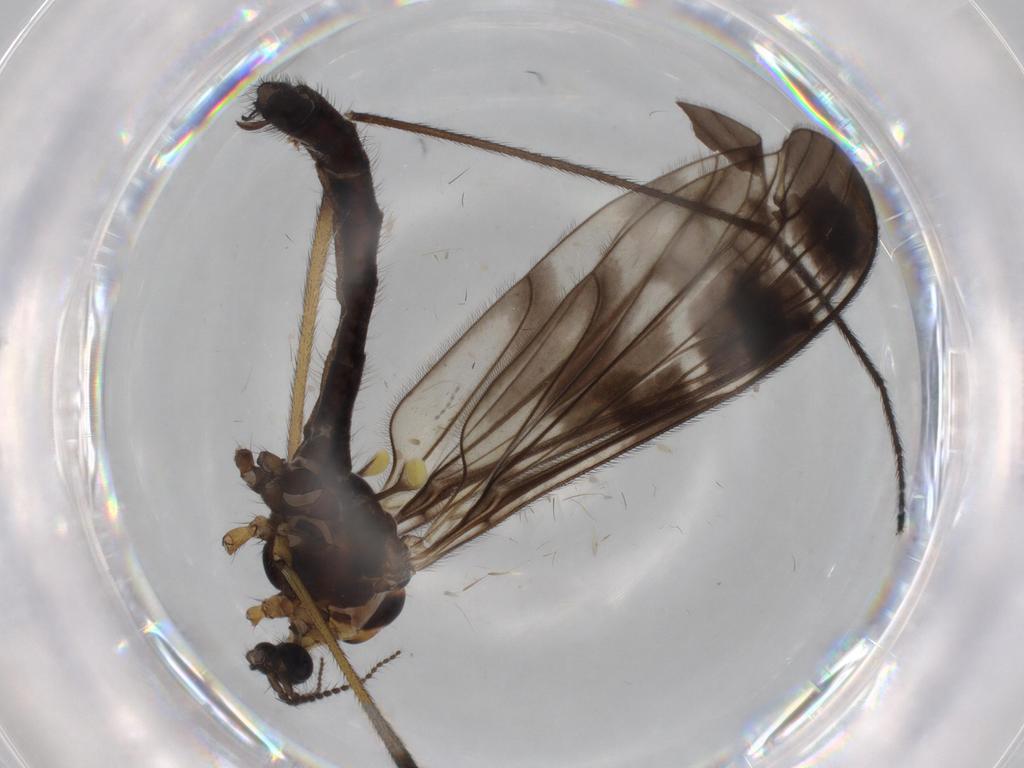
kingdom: Animalia
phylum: Arthropoda
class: Insecta
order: Diptera
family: Limoniidae
